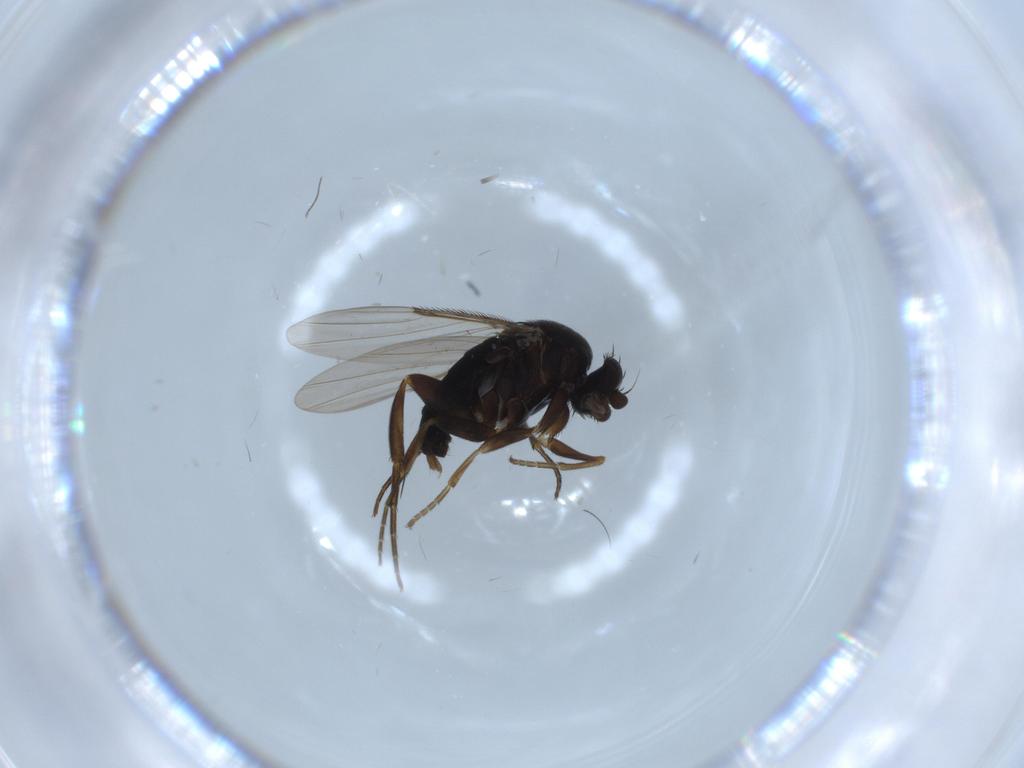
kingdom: Animalia
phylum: Arthropoda
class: Insecta
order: Diptera
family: Phoridae
